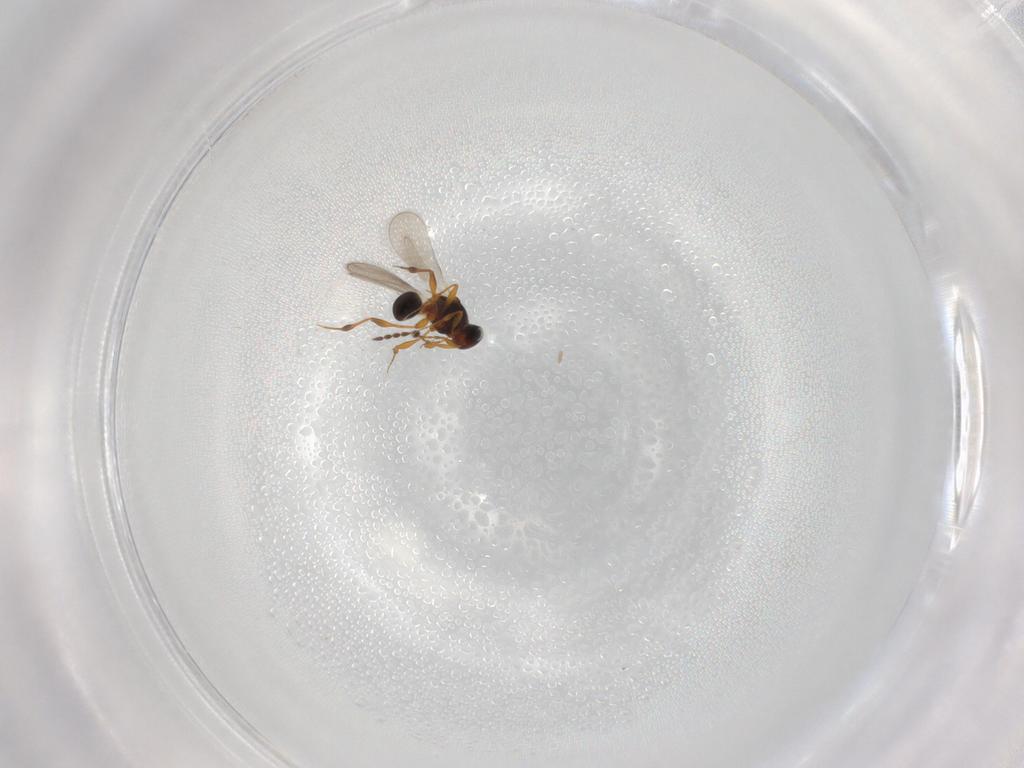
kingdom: Animalia
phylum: Arthropoda
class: Insecta
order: Hymenoptera
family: Platygastridae
